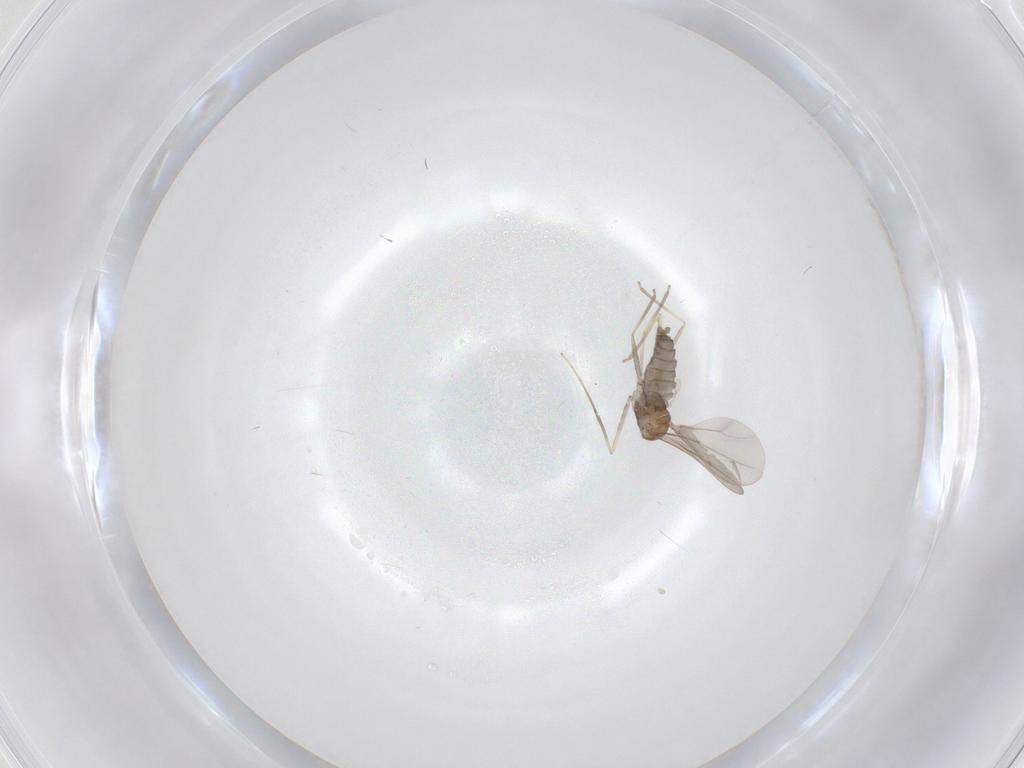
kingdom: Animalia
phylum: Arthropoda
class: Insecta
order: Diptera
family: Cecidomyiidae
